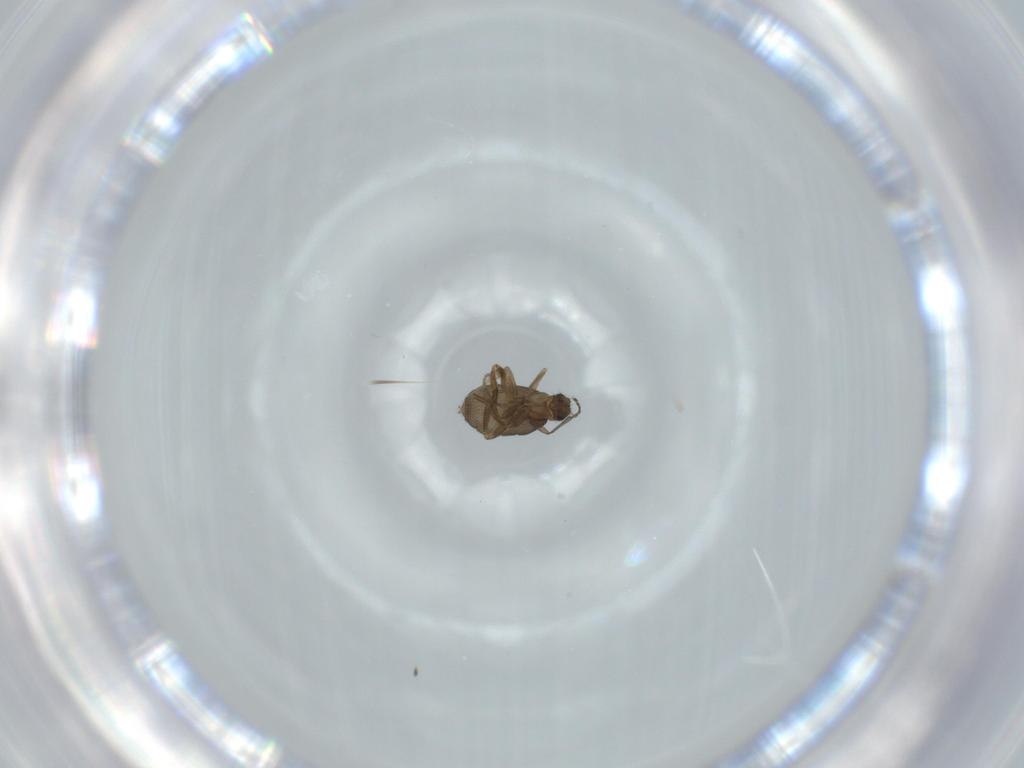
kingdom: Animalia
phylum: Arthropoda
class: Insecta
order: Diptera
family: Phoridae
